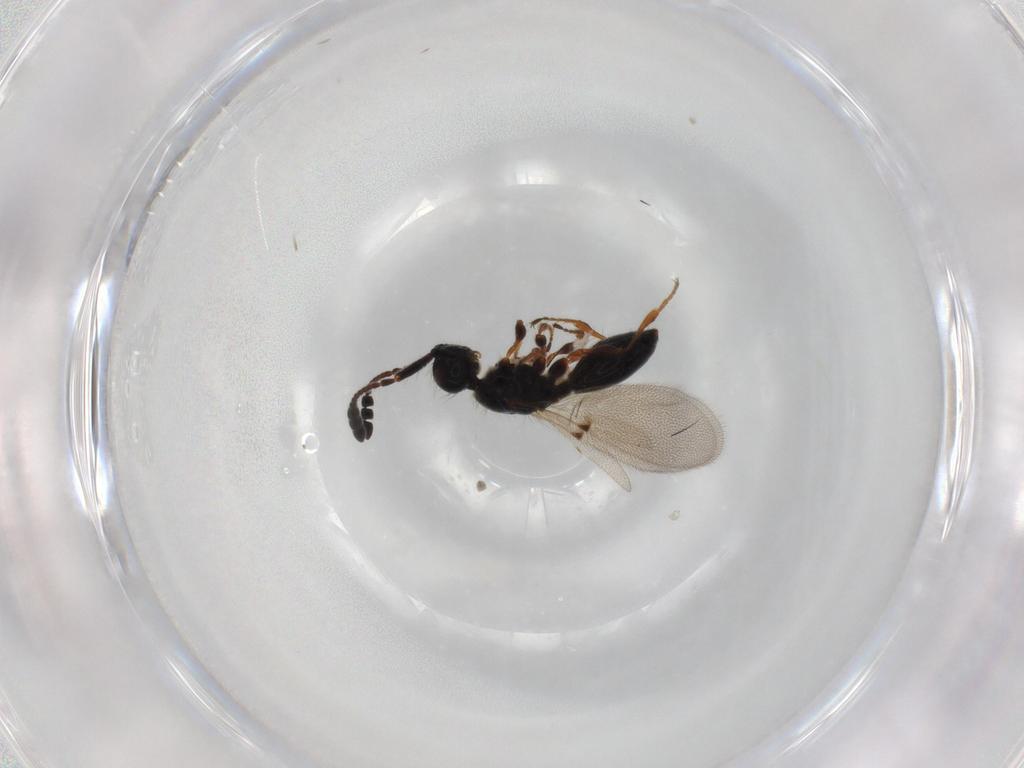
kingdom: Animalia
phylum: Arthropoda
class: Insecta
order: Hymenoptera
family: Diapriidae
